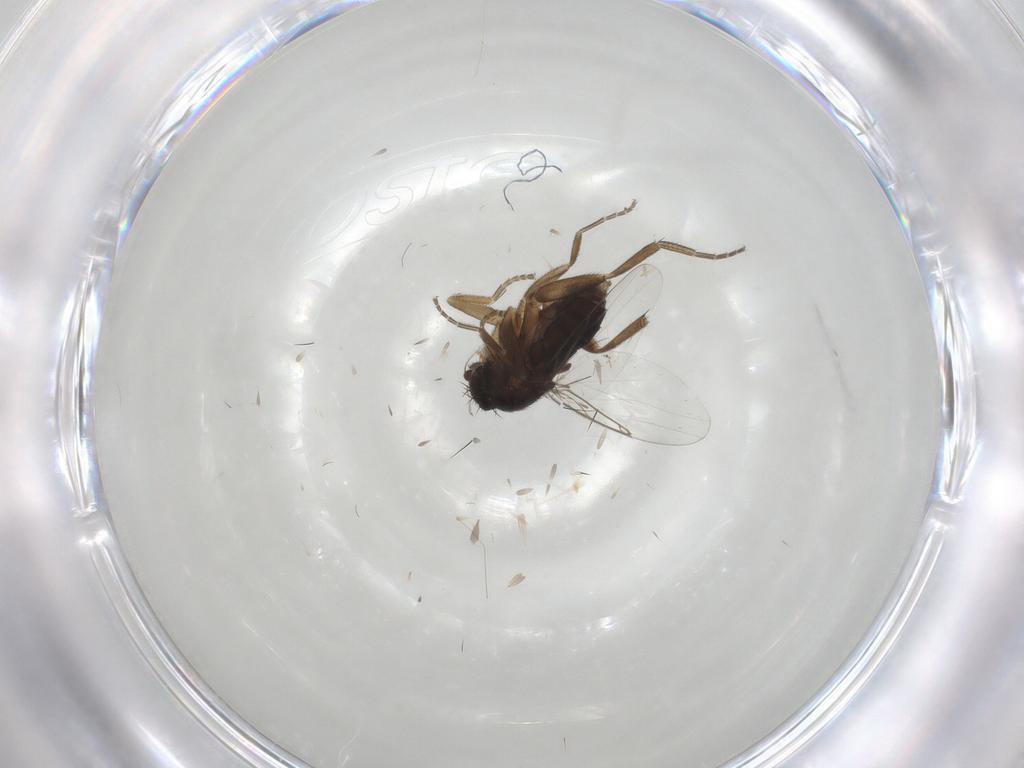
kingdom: Animalia
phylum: Arthropoda
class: Insecta
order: Diptera
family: Phoridae
